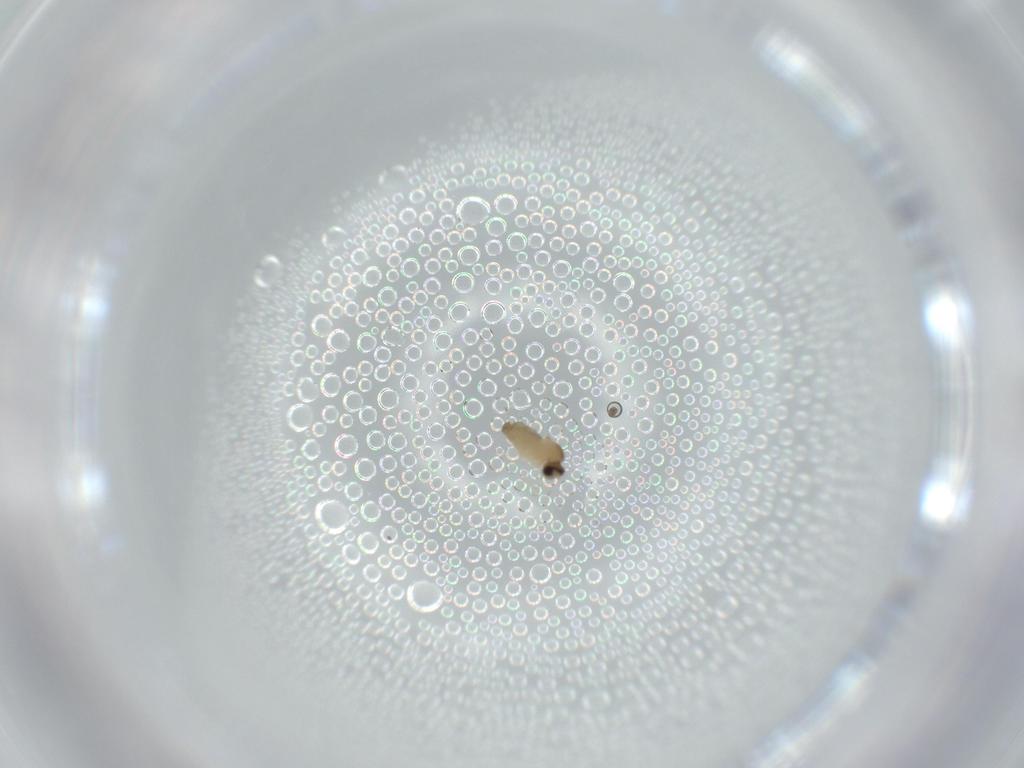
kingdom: Animalia
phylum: Arthropoda
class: Insecta
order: Diptera
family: Cecidomyiidae
